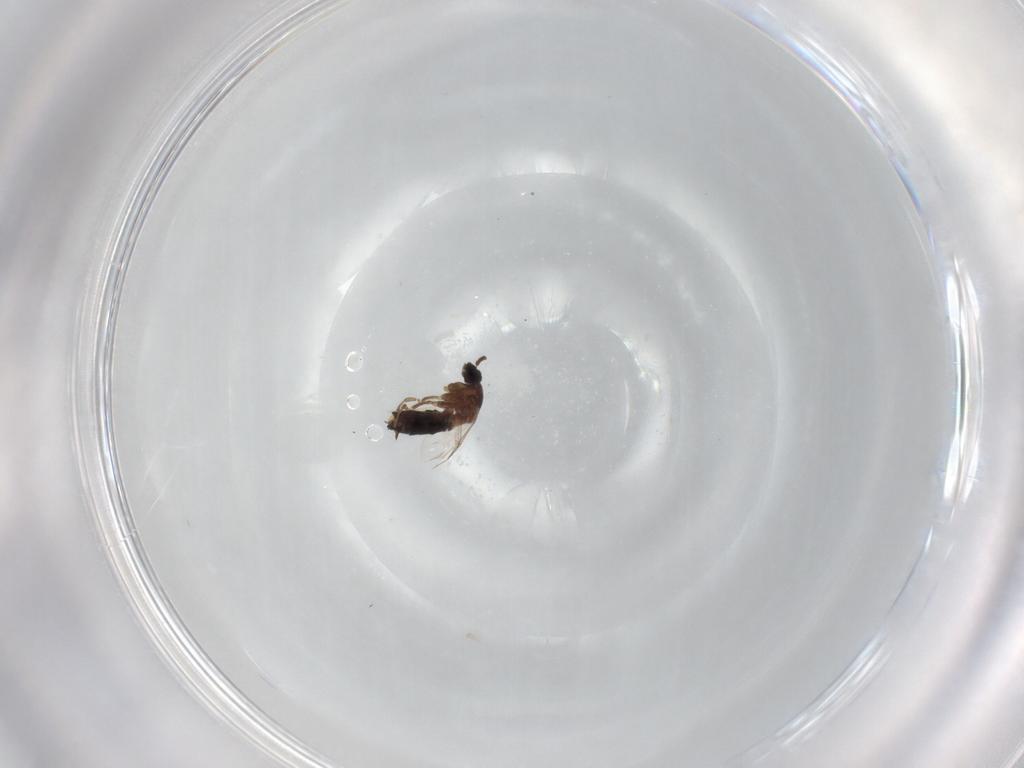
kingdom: Animalia
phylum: Arthropoda
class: Insecta
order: Diptera
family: Scatopsidae
